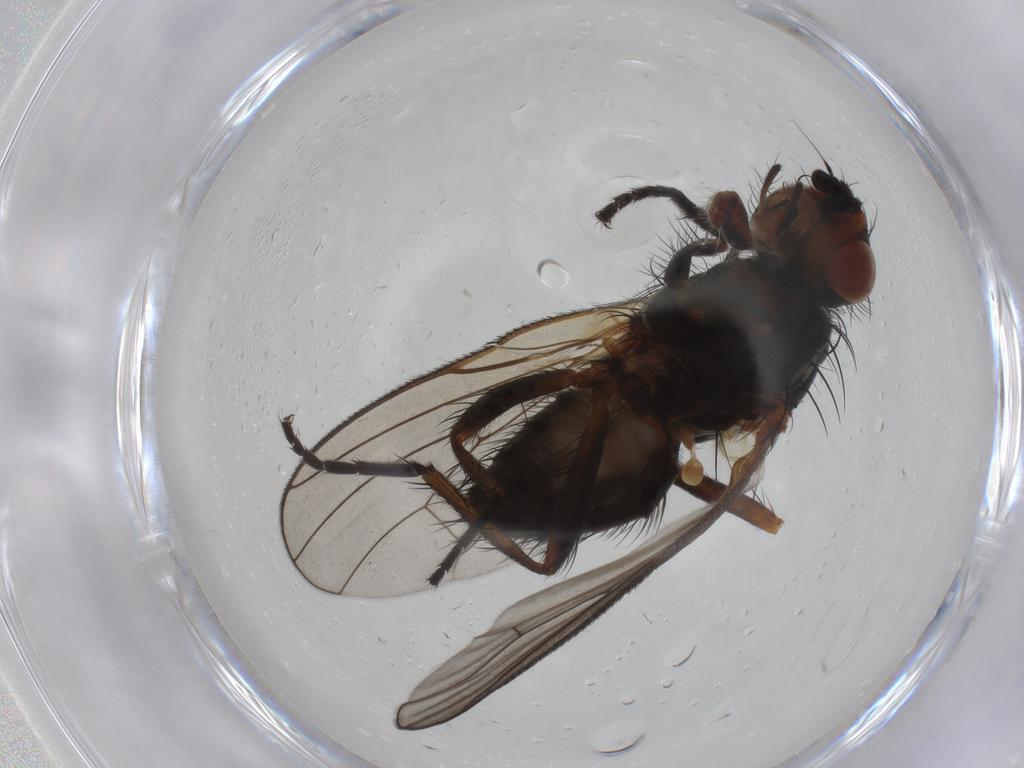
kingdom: Animalia
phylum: Arthropoda
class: Insecta
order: Diptera
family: Anthomyiidae
